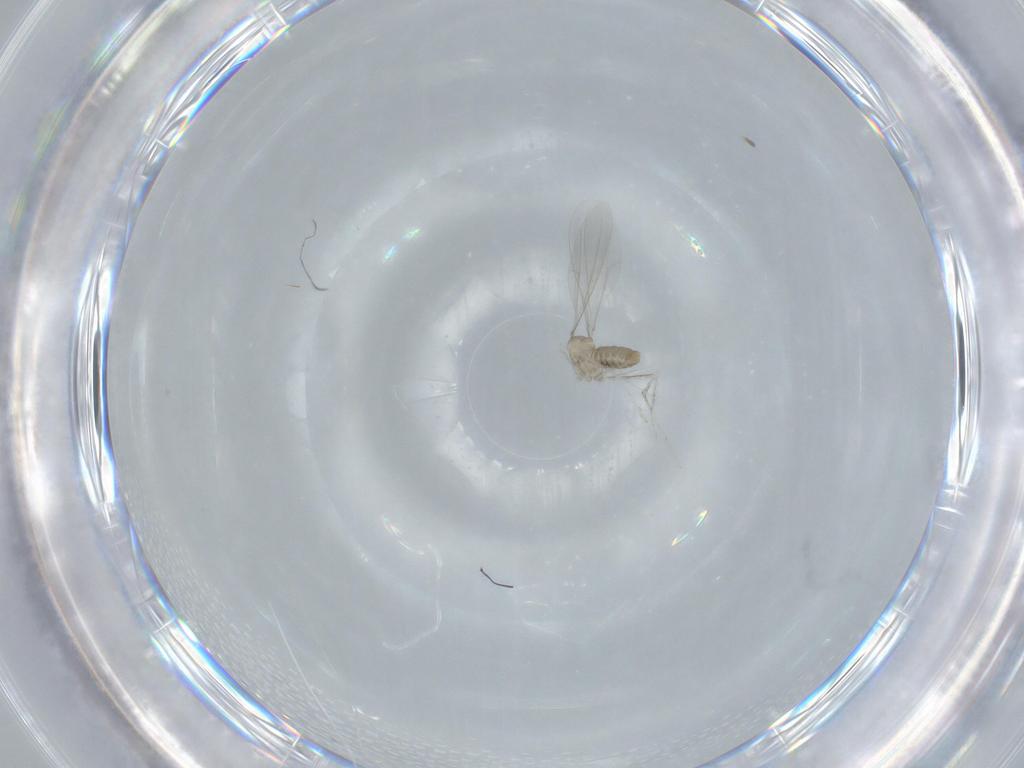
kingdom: Animalia
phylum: Arthropoda
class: Insecta
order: Diptera
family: Cecidomyiidae
